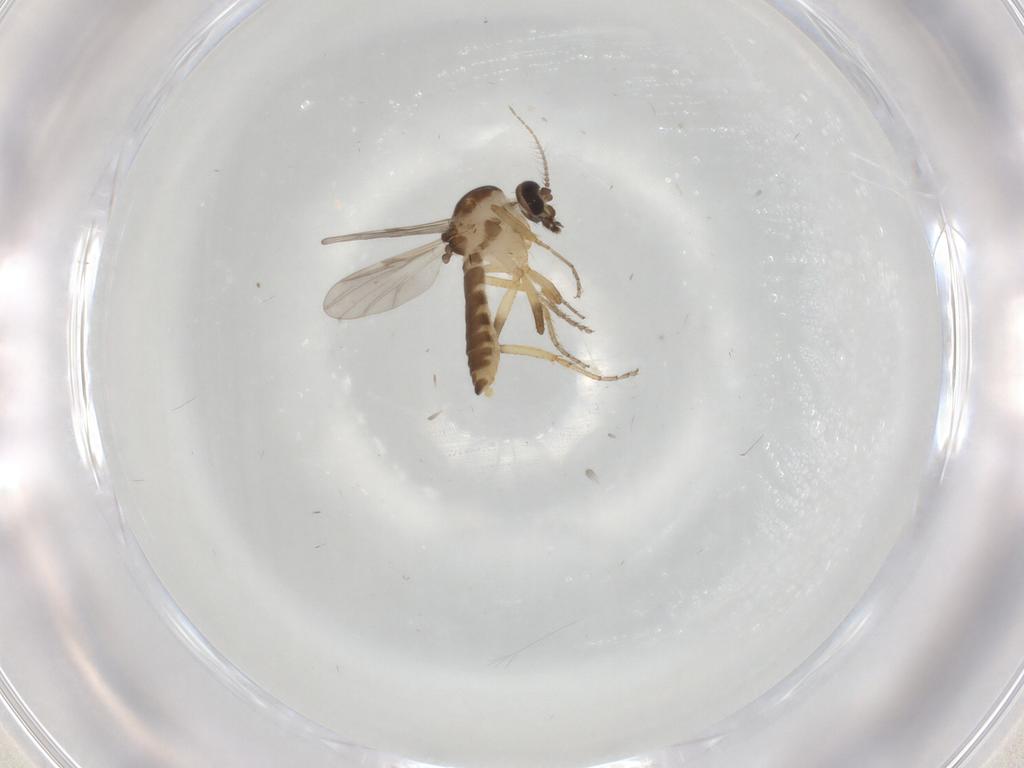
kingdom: Animalia
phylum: Arthropoda
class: Insecta
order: Diptera
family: Ceratopogonidae
